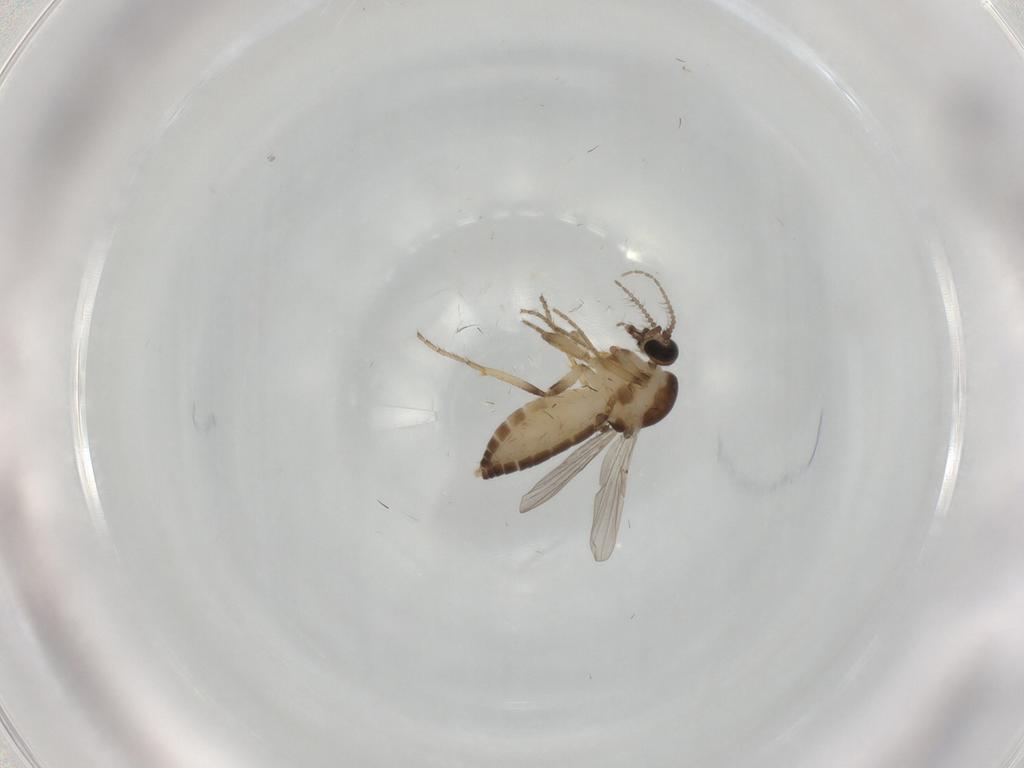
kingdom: Animalia
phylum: Arthropoda
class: Insecta
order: Diptera
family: Ceratopogonidae
